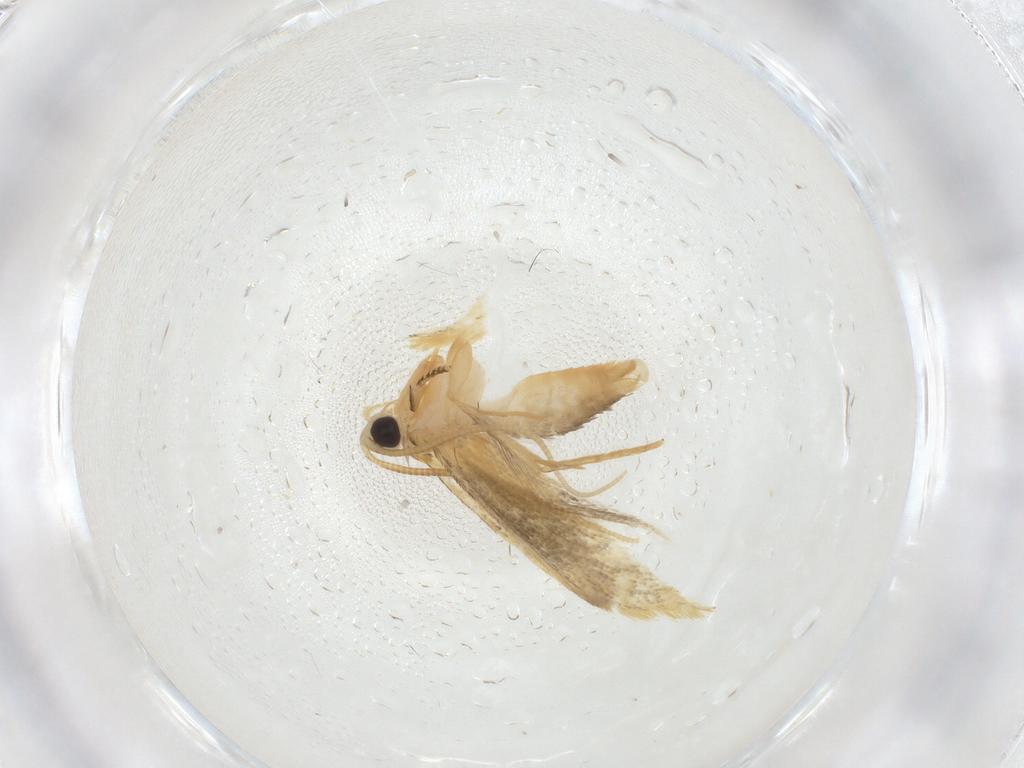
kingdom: Animalia
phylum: Arthropoda
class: Insecta
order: Lepidoptera
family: Tineidae
